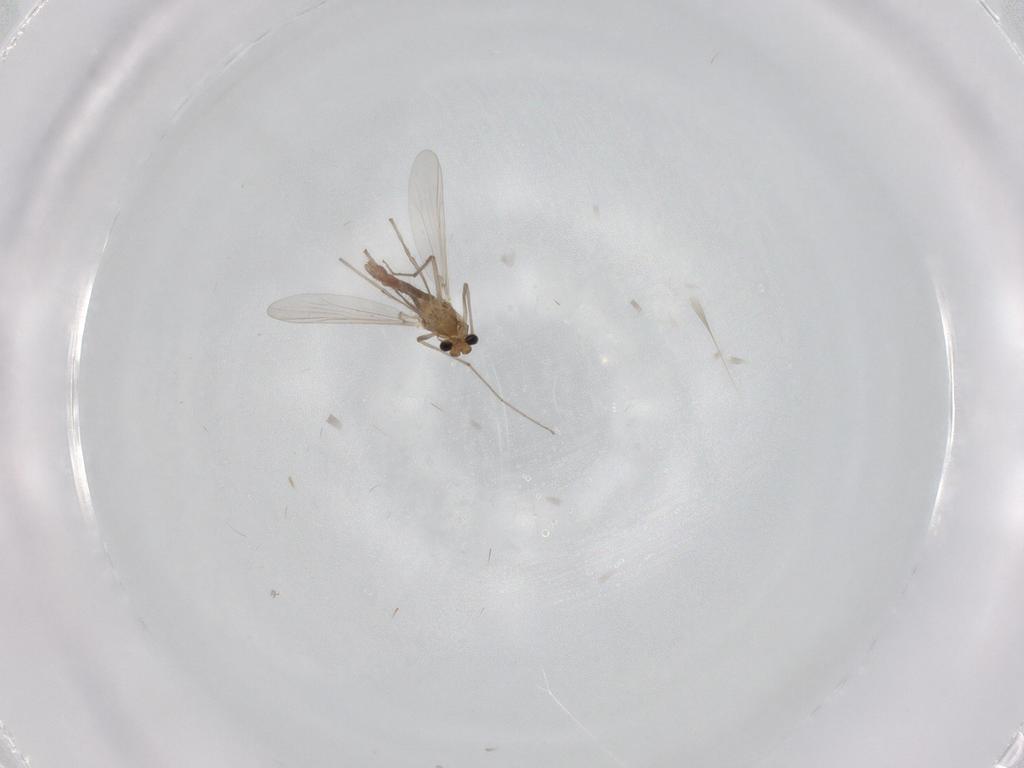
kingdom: Animalia
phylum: Arthropoda
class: Insecta
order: Diptera
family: Chironomidae
